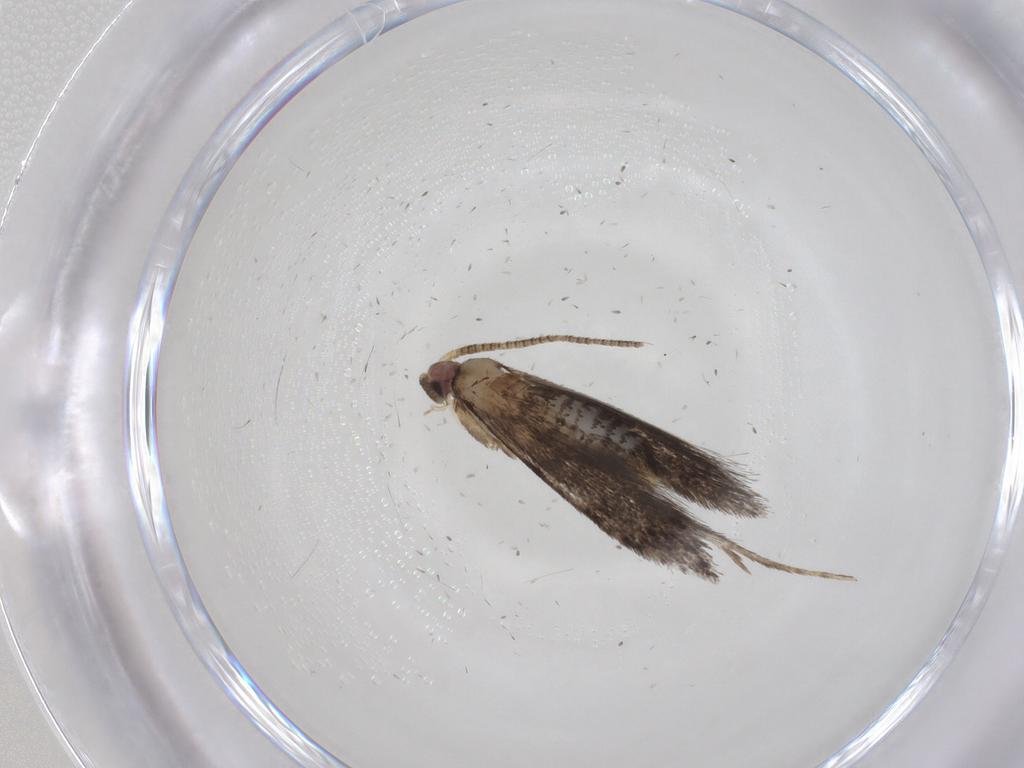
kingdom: Animalia
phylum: Arthropoda
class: Insecta
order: Lepidoptera
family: Tineidae
